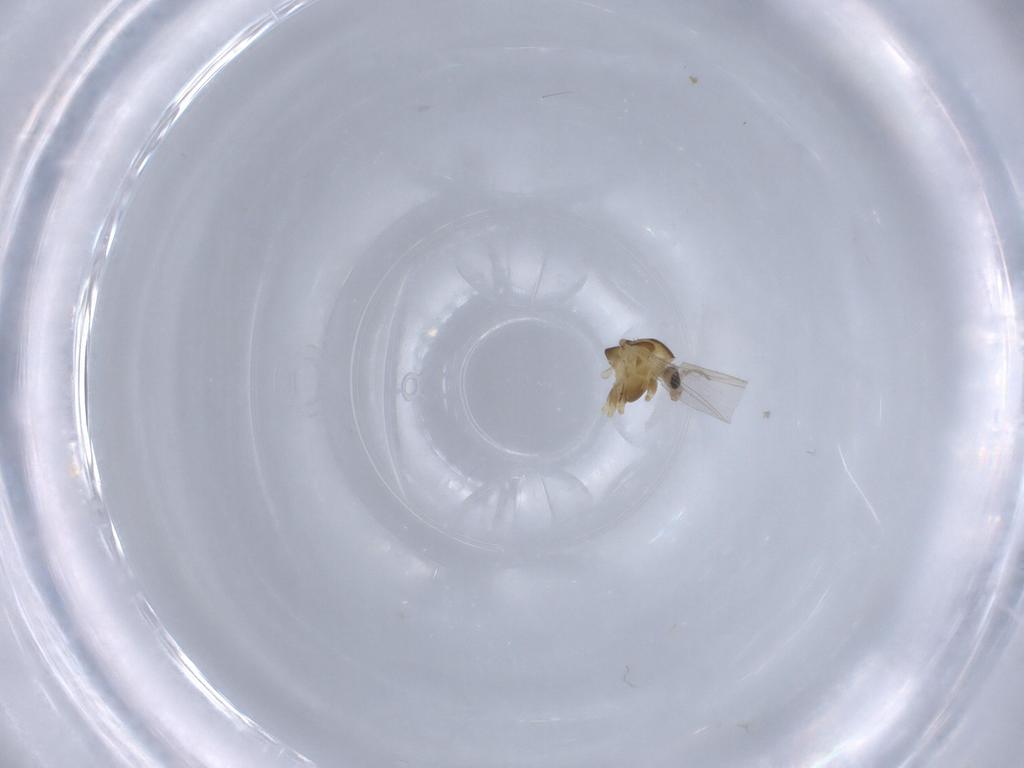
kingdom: Animalia
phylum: Arthropoda
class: Insecta
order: Diptera
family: Chironomidae
